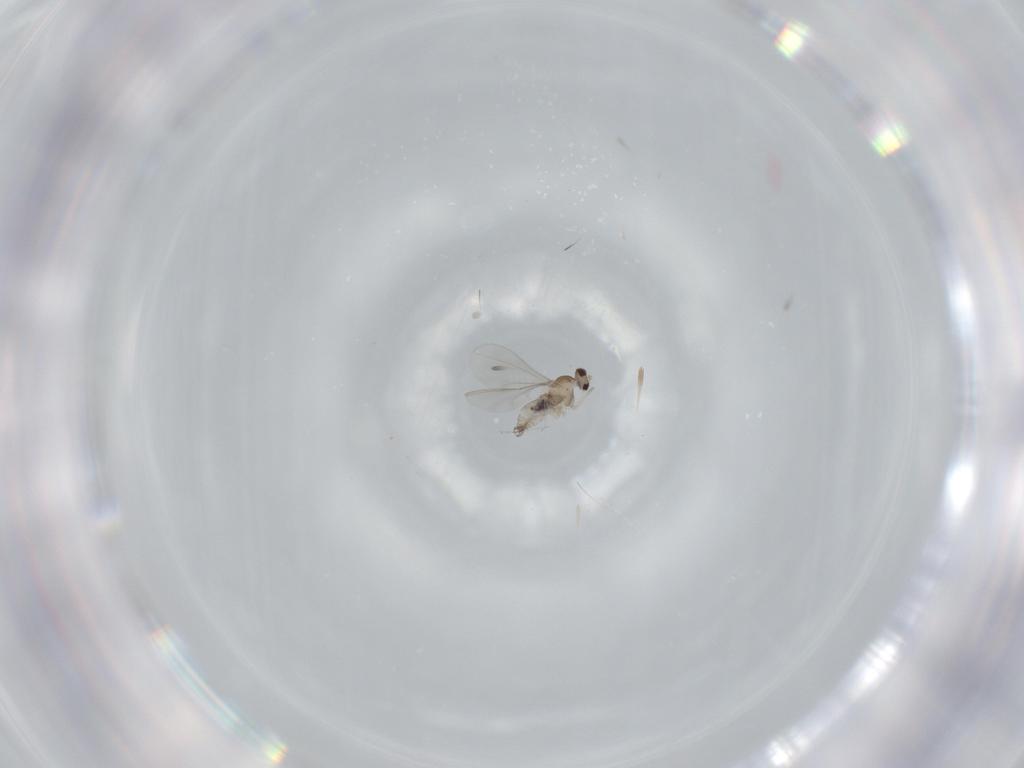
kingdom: Animalia
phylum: Arthropoda
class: Insecta
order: Diptera
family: Cecidomyiidae
